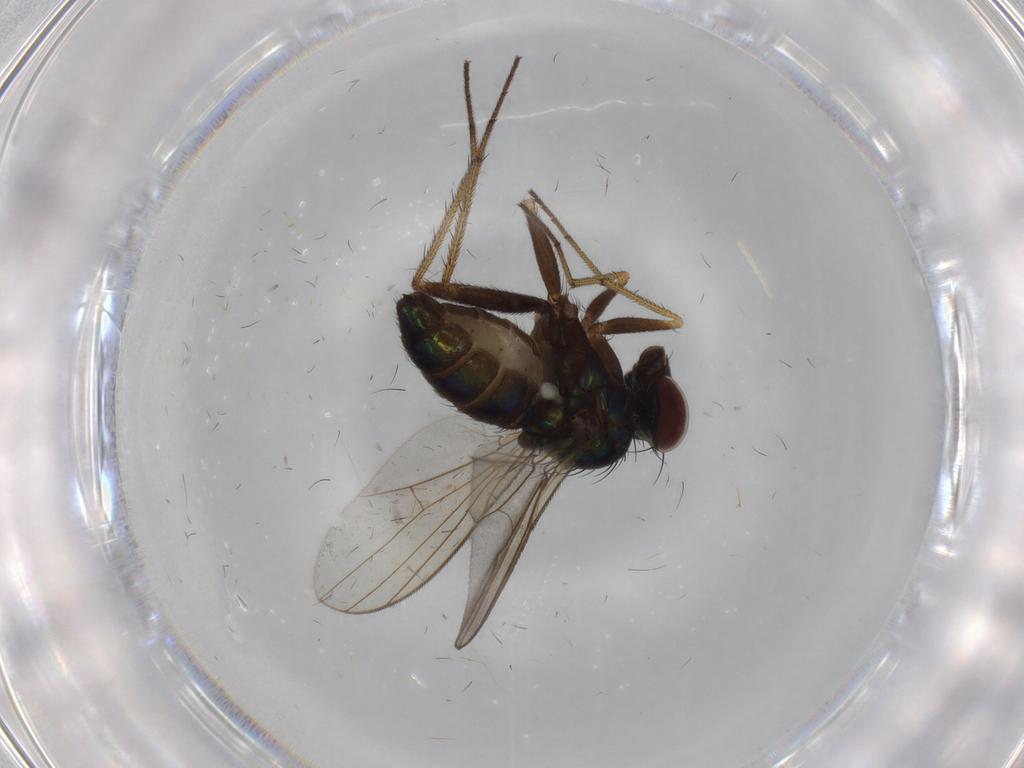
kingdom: Animalia
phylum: Arthropoda
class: Insecta
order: Diptera
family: Dolichopodidae
